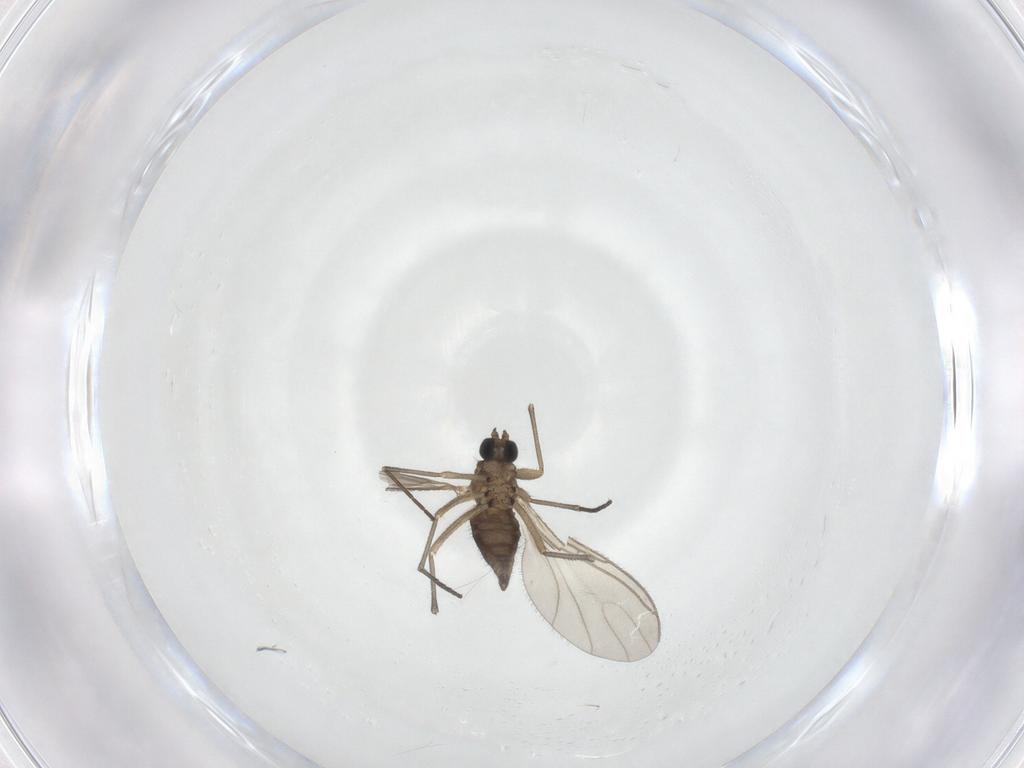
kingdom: Animalia
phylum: Arthropoda
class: Insecta
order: Diptera
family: Sciaridae
